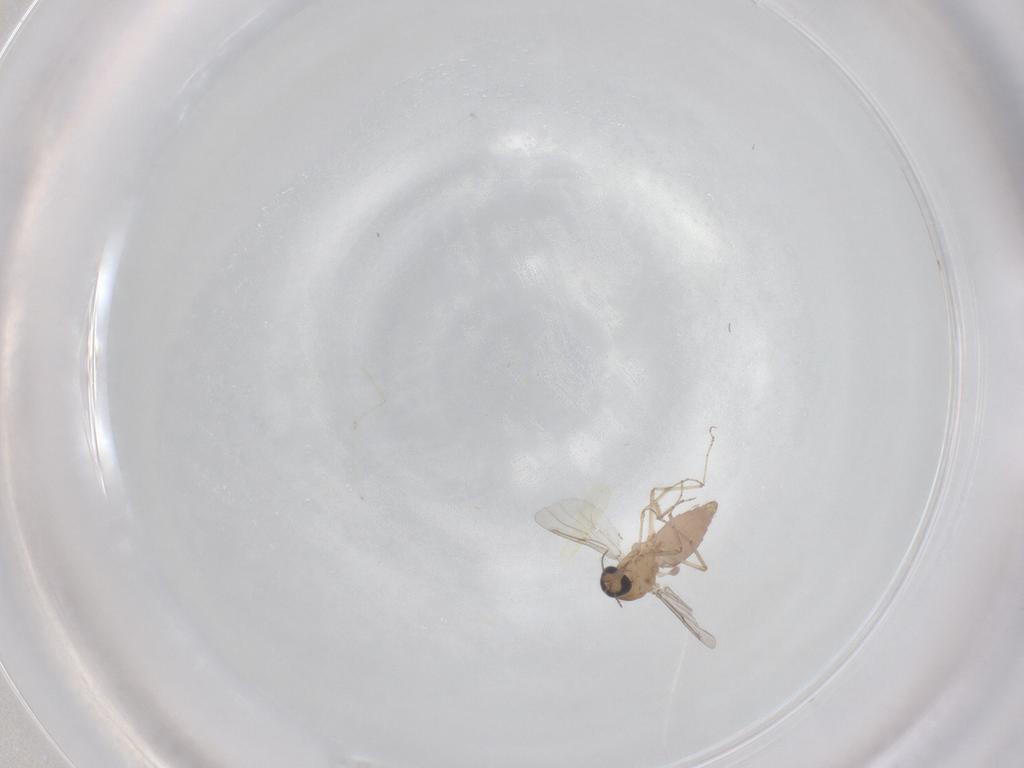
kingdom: Animalia
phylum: Arthropoda
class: Insecta
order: Diptera
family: Ceratopogonidae
